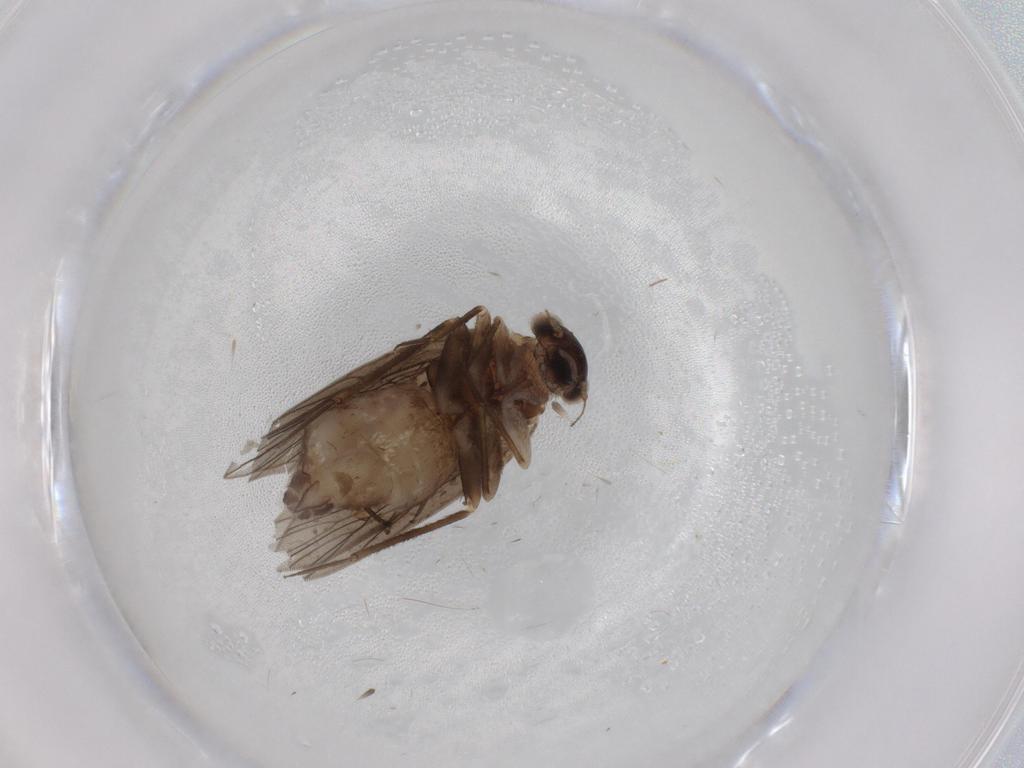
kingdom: Animalia
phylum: Arthropoda
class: Insecta
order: Psocodea
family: Lepidopsocidae
